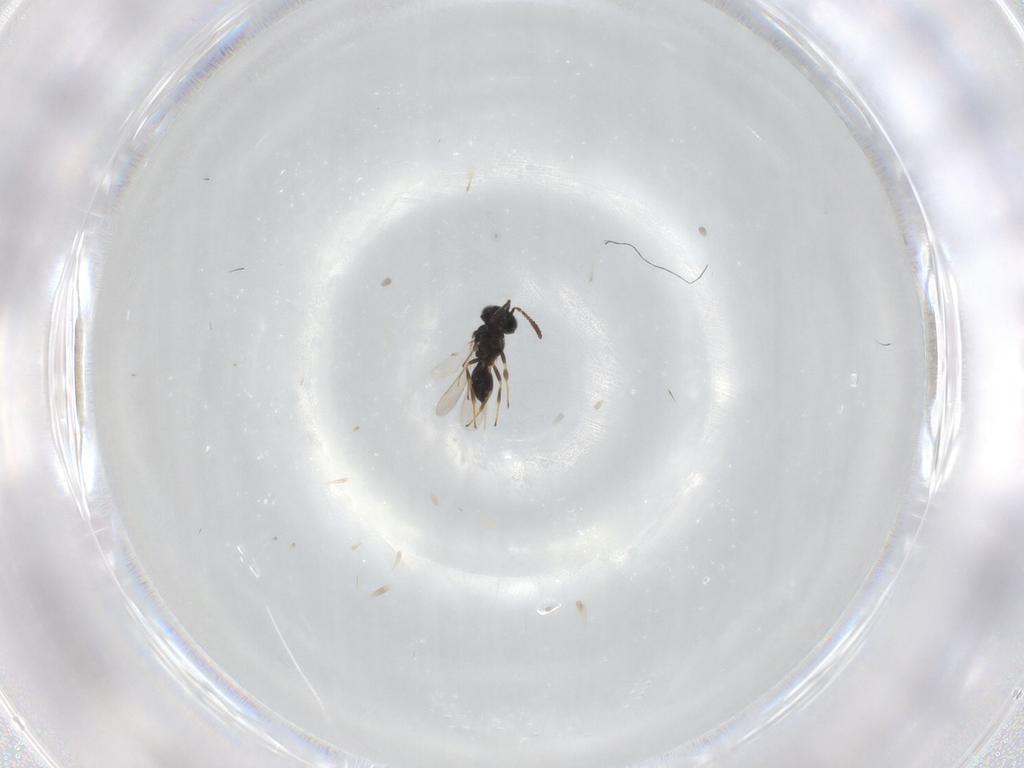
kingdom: Animalia
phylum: Arthropoda
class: Insecta
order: Hymenoptera
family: Scelionidae
